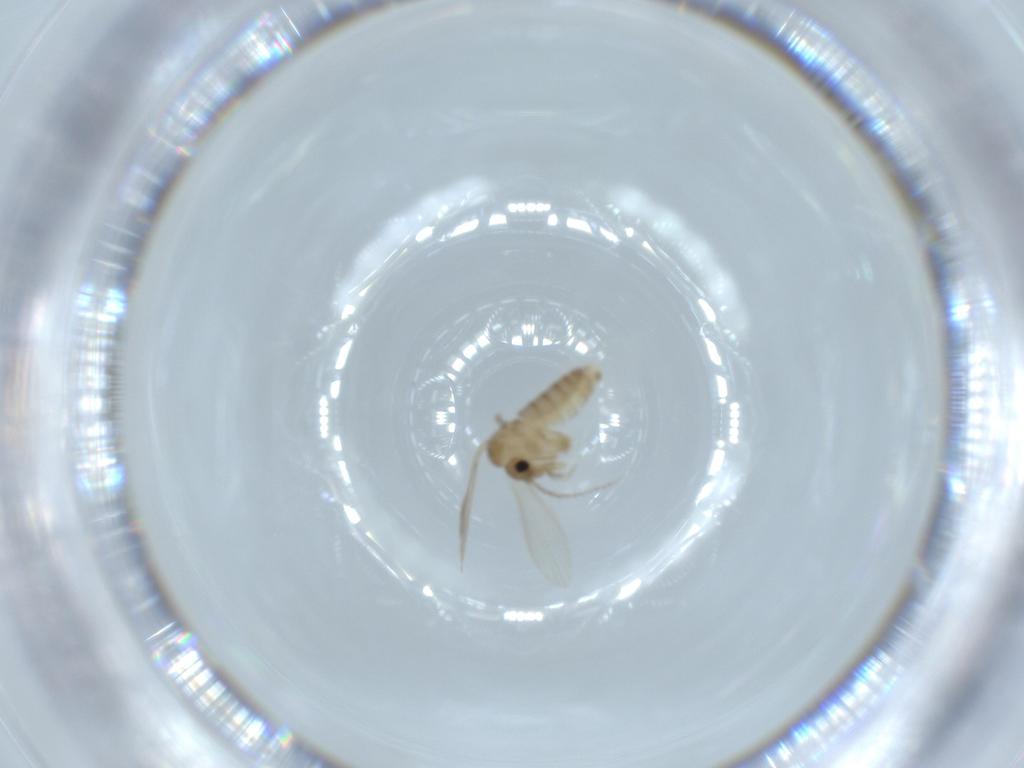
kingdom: Animalia
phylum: Arthropoda
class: Insecta
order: Diptera
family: Psychodidae
